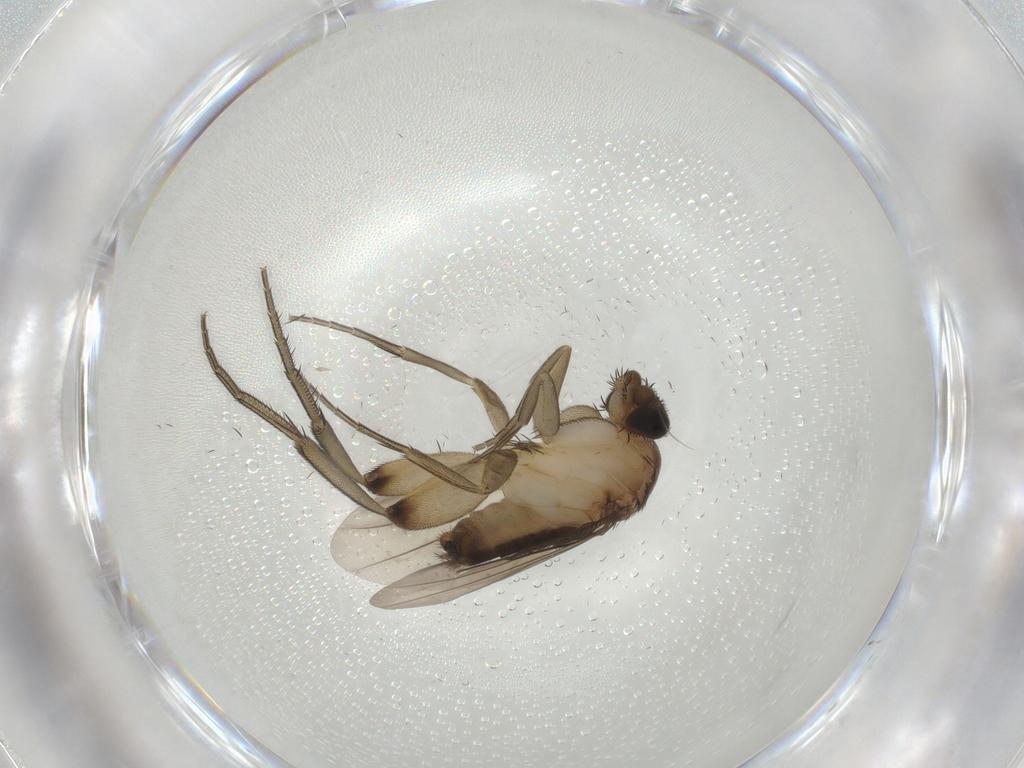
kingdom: Animalia
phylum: Arthropoda
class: Insecta
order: Diptera
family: Phoridae
